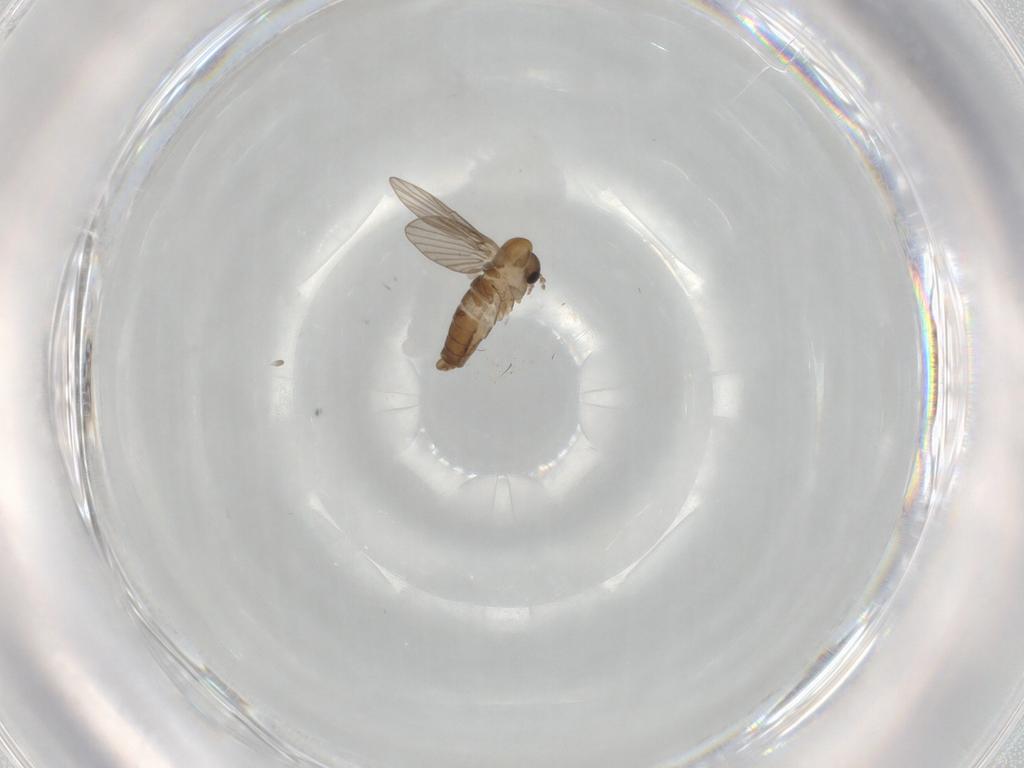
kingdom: Animalia
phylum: Arthropoda
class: Insecta
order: Diptera
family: Psychodidae
